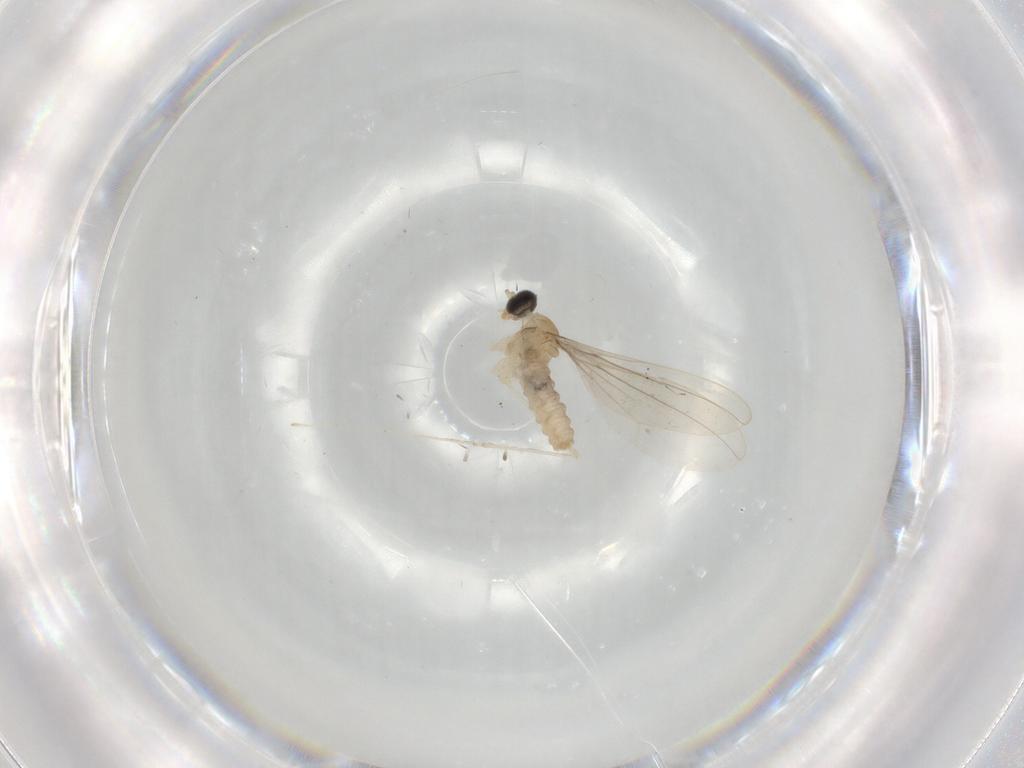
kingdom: Animalia
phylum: Arthropoda
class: Insecta
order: Diptera
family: Cecidomyiidae
